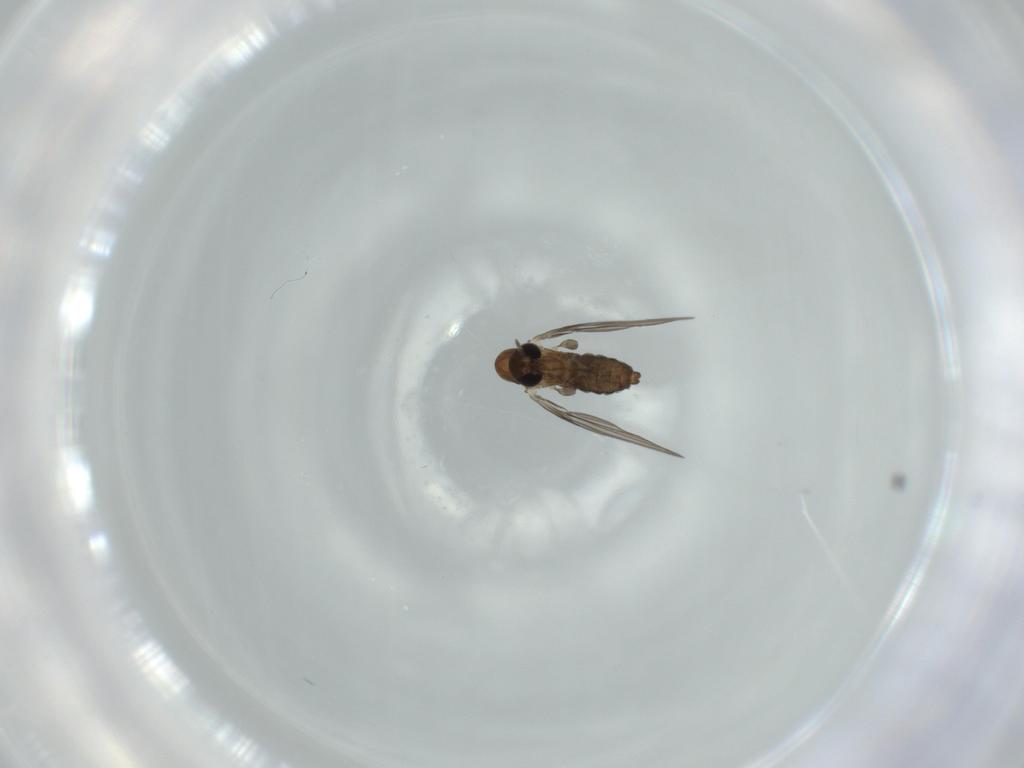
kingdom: Animalia
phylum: Arthropoda
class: Insecta
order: Diptera
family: Psychodidae
